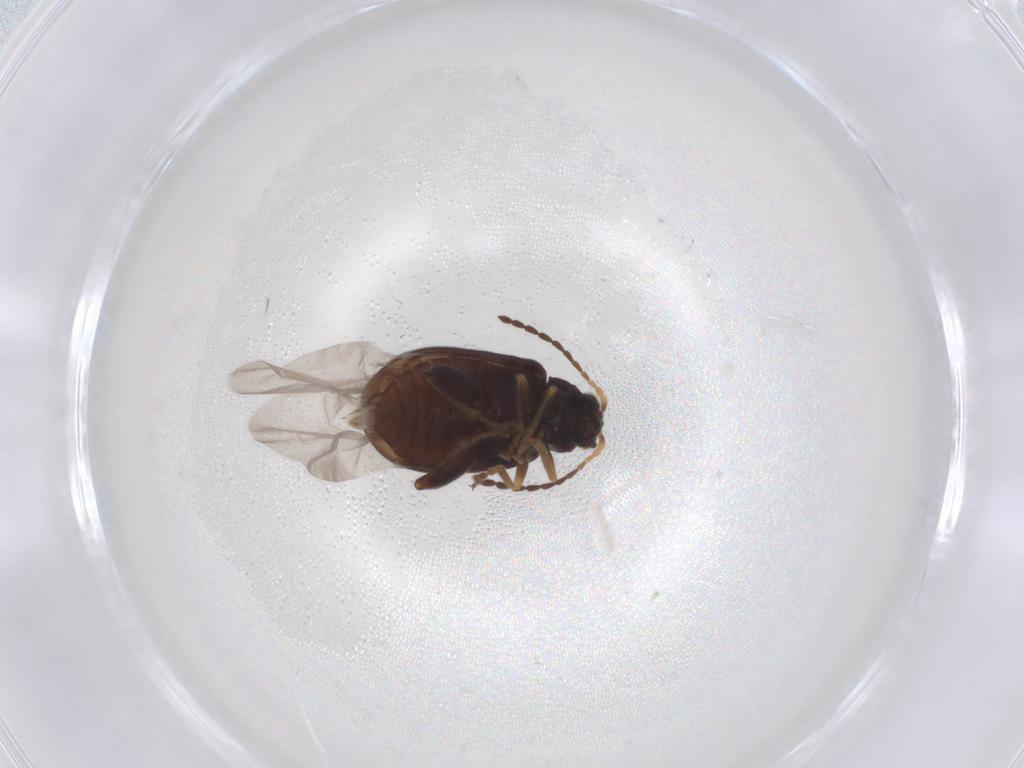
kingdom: Animalia
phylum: Arthropoda
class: Insecta
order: Coleoptera
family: Chrysomelidae
